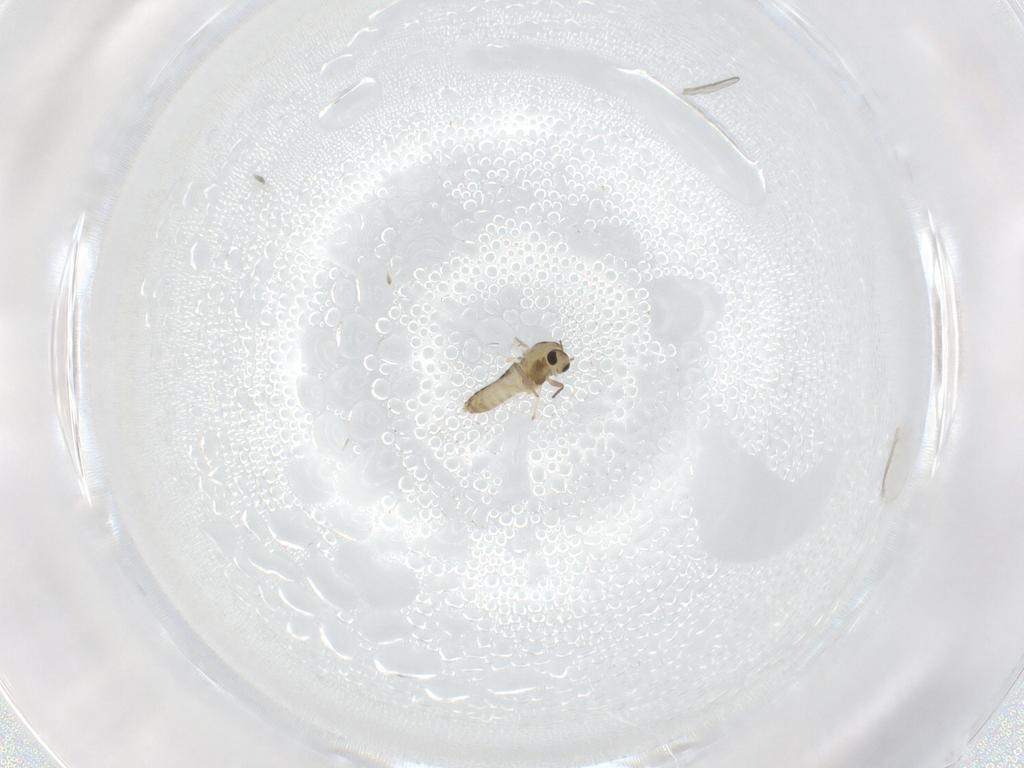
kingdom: Animalia
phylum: Arthropoda
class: Insecta
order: Diptera
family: Chironomidae
